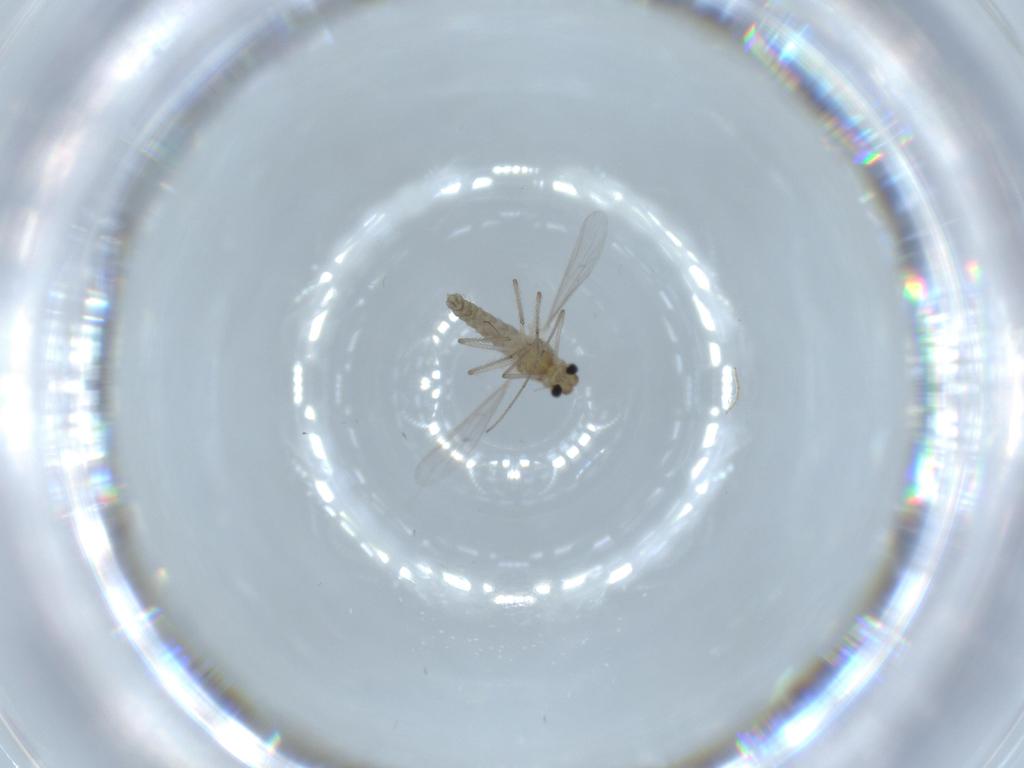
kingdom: Animalia
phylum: Arthropoda
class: Insecta
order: Diptera
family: Chironomidae
